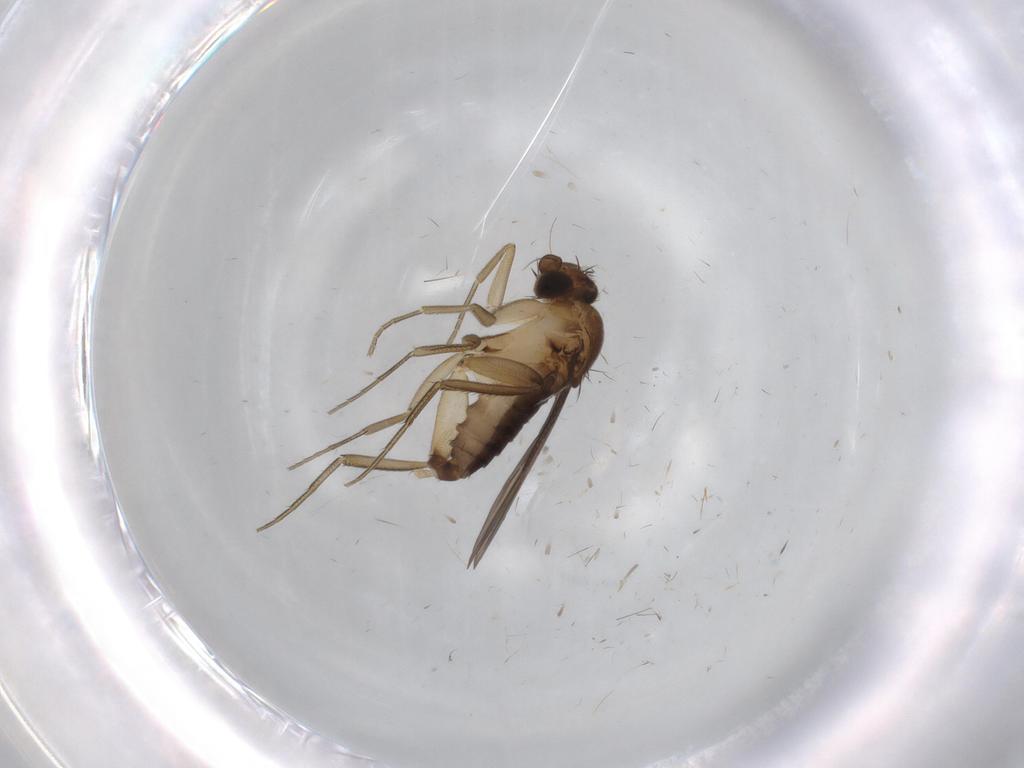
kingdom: Animalia
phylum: Arthropoda
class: Insecta
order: Diptera
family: Phoridae
